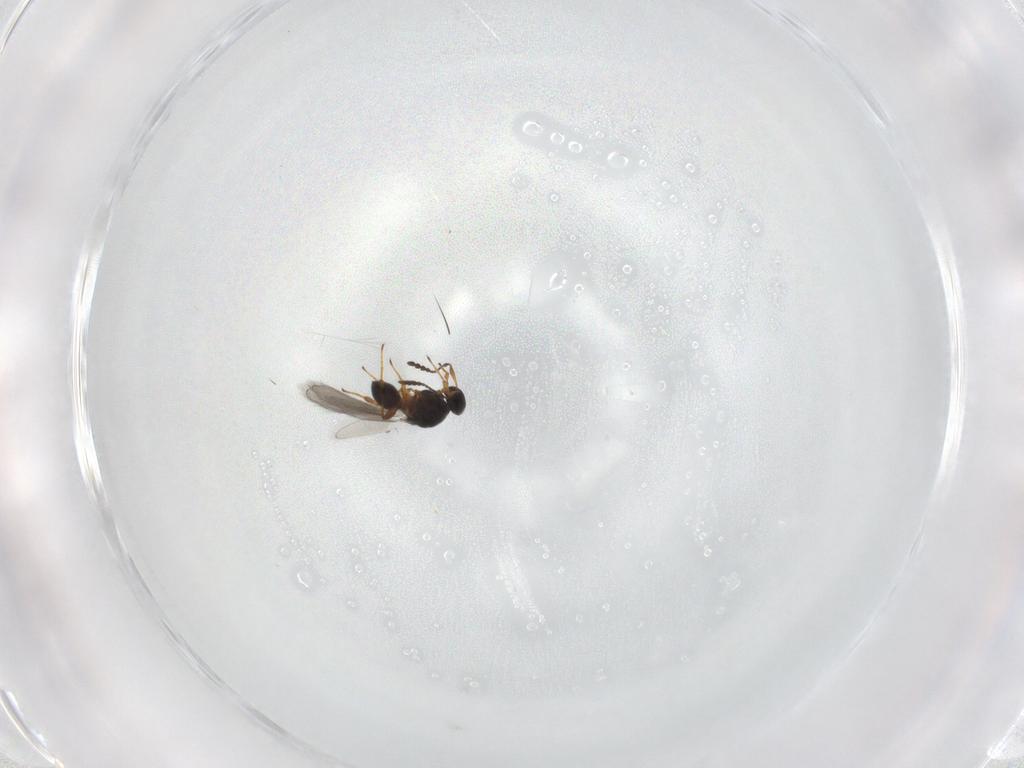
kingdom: Animalia
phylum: Arthropoda
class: Insecta
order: Hymenoptera
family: Platygastridae
